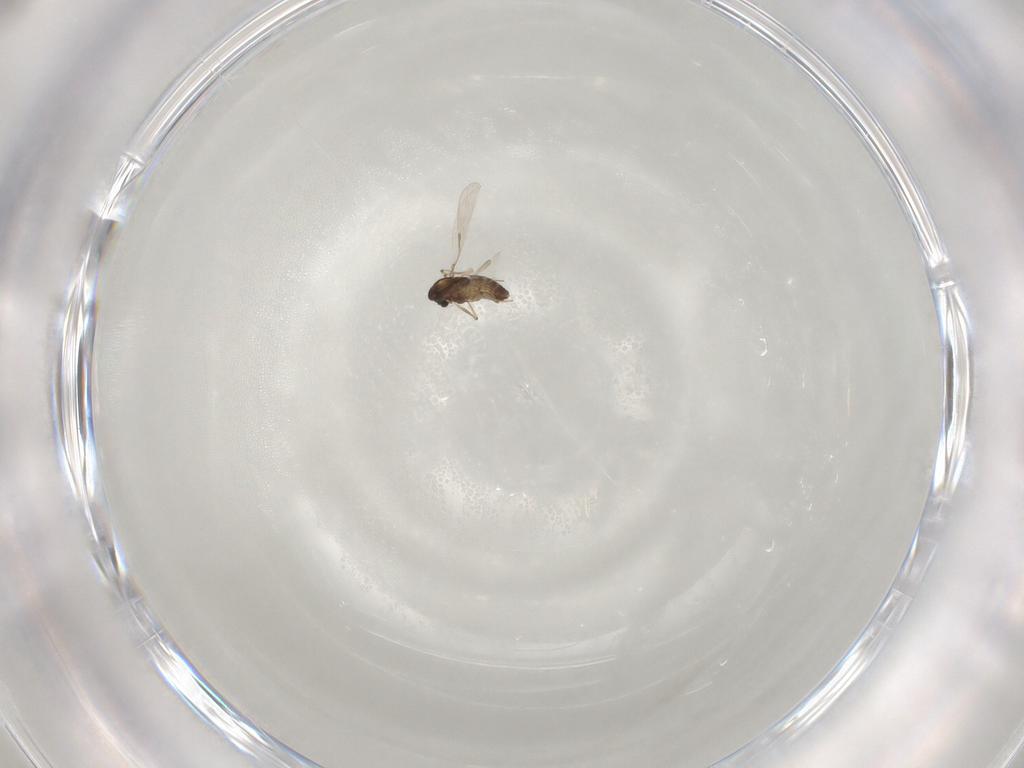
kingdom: Animalia
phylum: Arthropoda
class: Insecta
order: Diptera
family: Chironomidae
